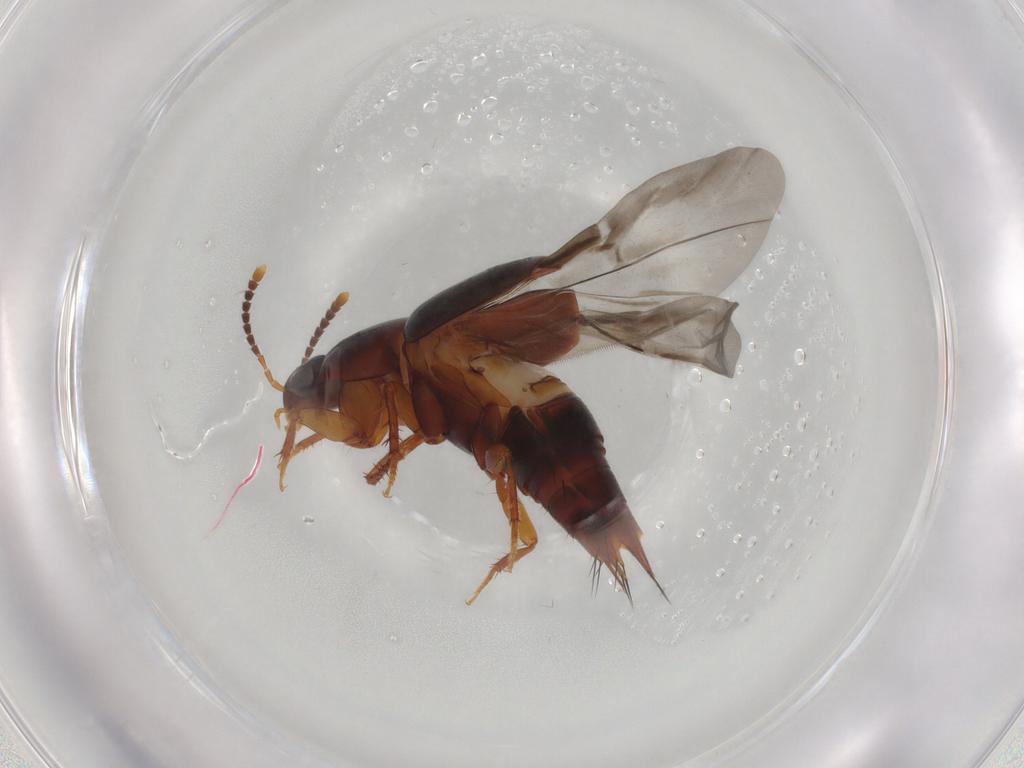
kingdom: Animalia
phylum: Arthropoda
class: Insecta
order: Coleoptera
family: Staphylinidae
